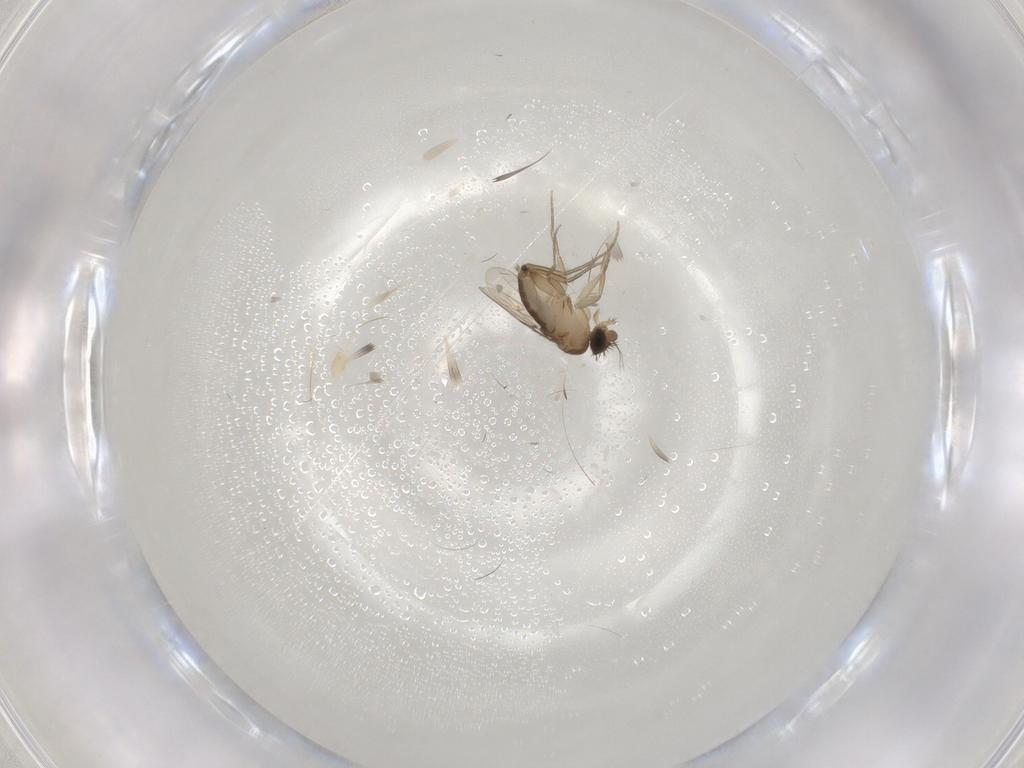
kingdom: Animalia
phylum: Arthropoda
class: Insecta
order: Diptera
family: Phoridae
